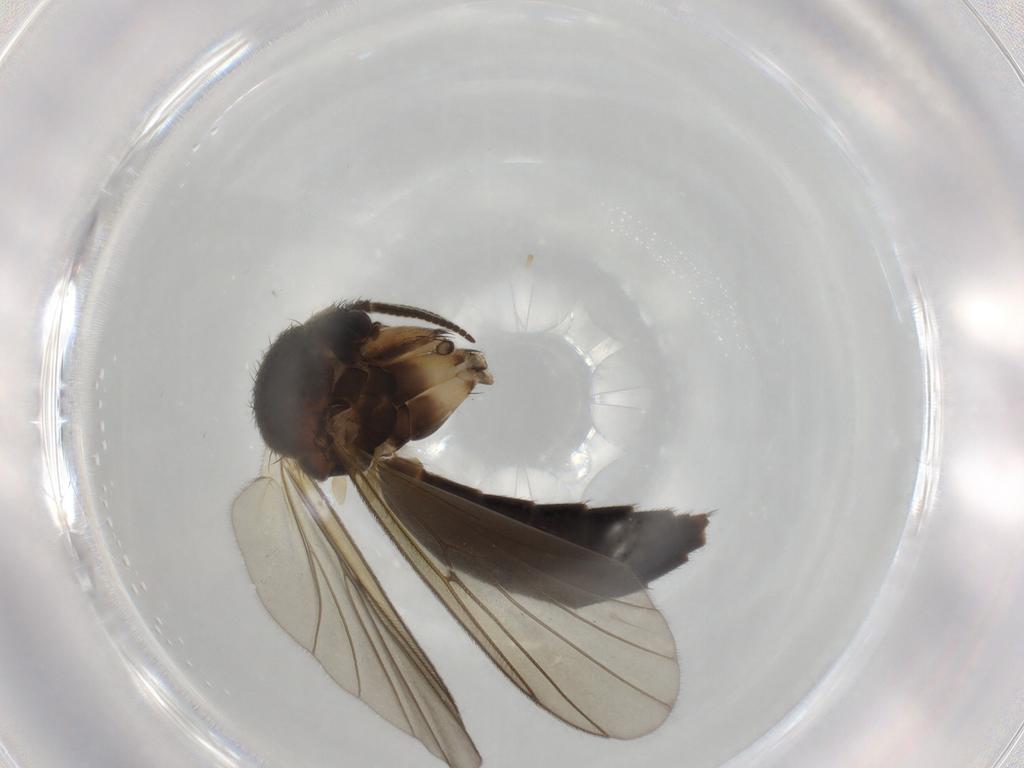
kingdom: Animalia
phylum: Arthropoda
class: Insecta
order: Diptera
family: Mycetophilidae
